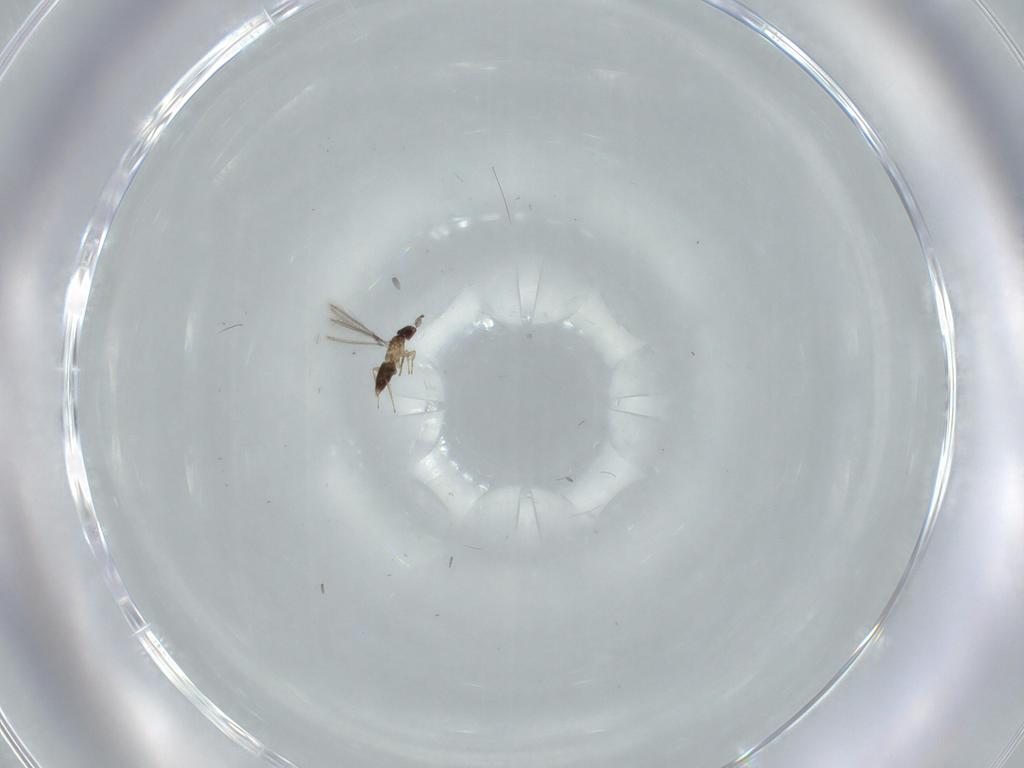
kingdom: Animalia
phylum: Arthropoda
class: Insecta
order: Hymenoptera
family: Mymaridae
